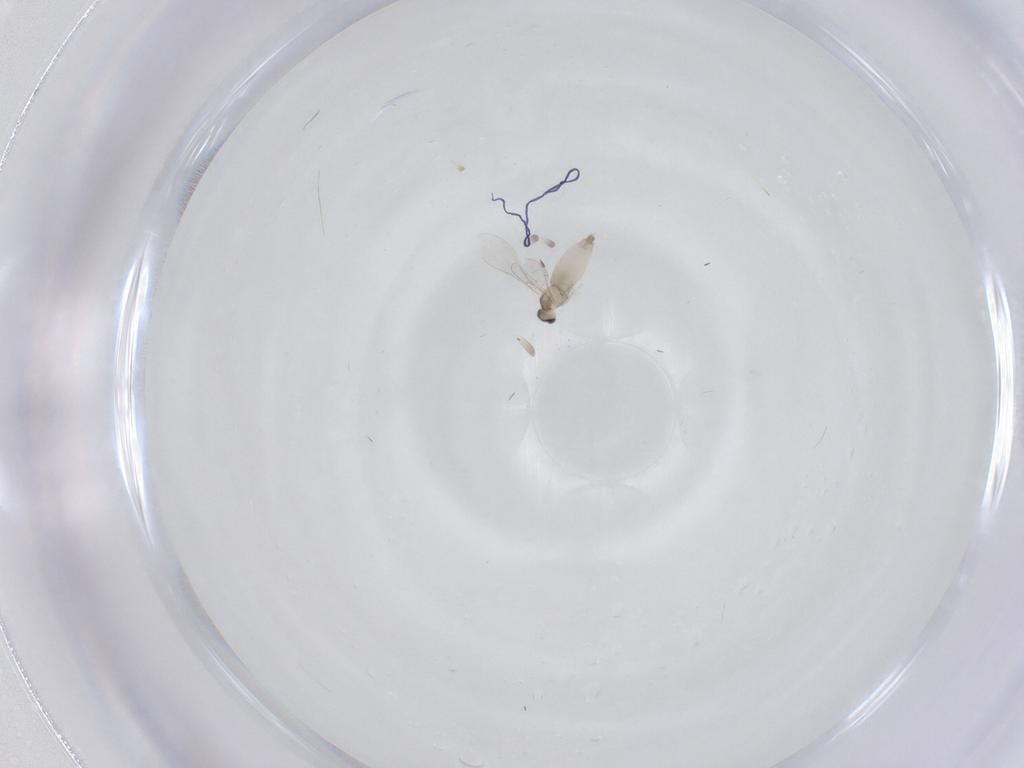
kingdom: Animalia
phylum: Arthropoda
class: Insecta
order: Diptera
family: Cecidomyiidae
